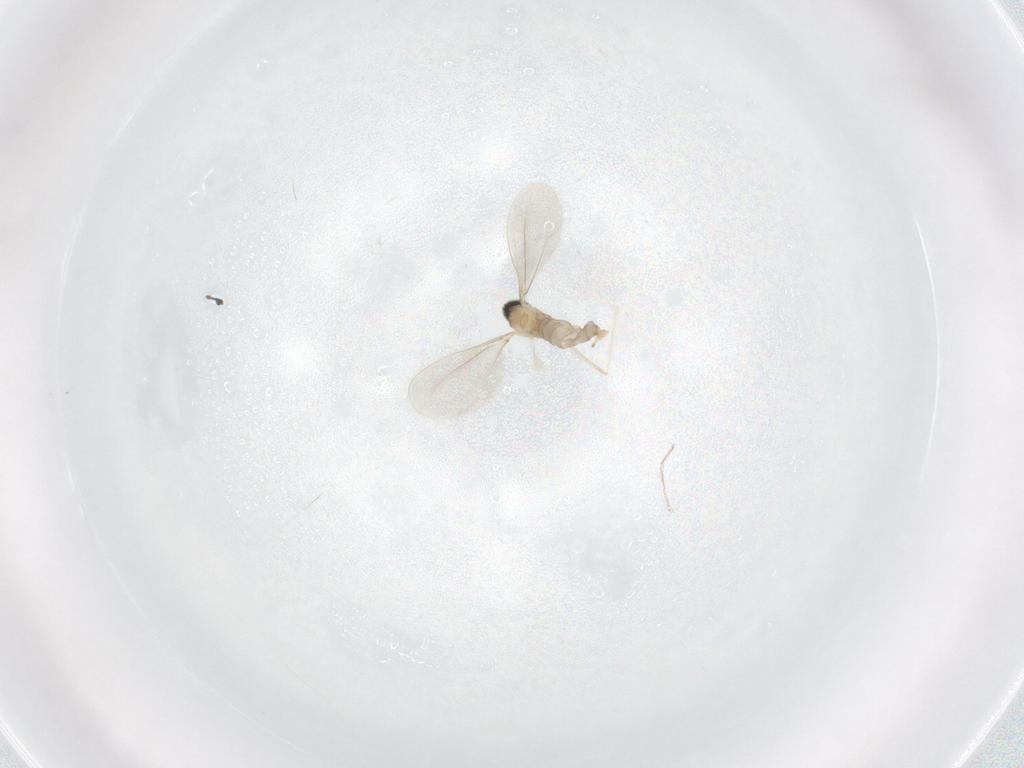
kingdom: Animalia
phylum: Arthropoda
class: Insecta
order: Diptera
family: Cecidomyiidae
